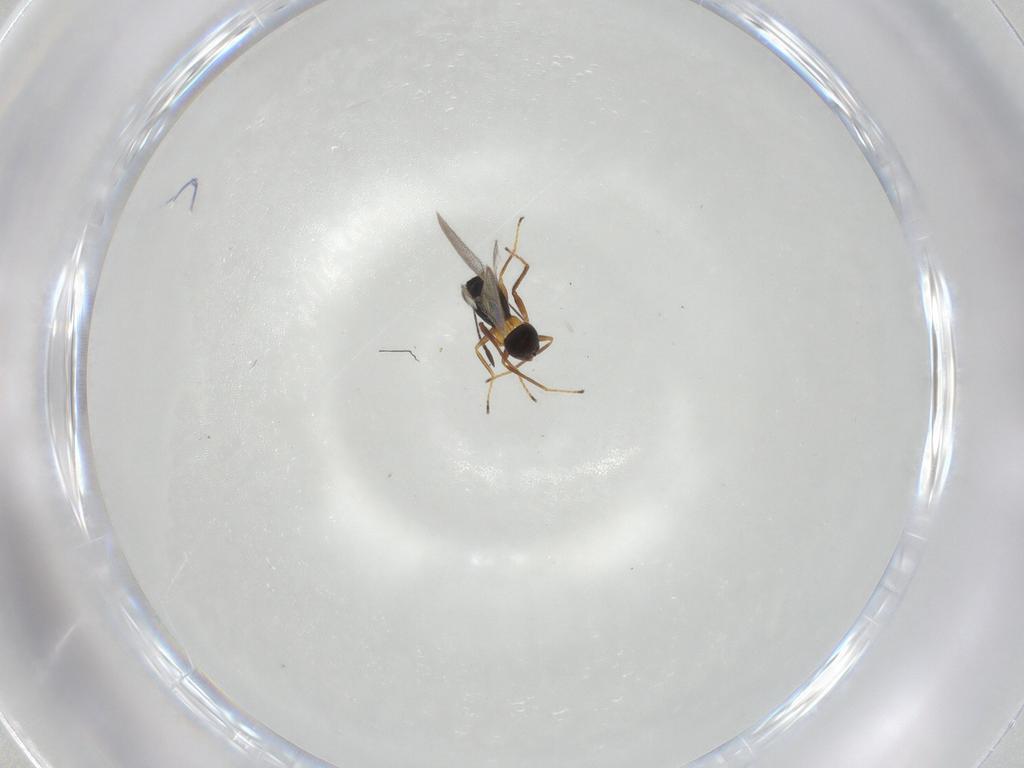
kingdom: Animalia
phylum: Arthropoda
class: Insecta
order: Hymenoptera
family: Mymaridae
